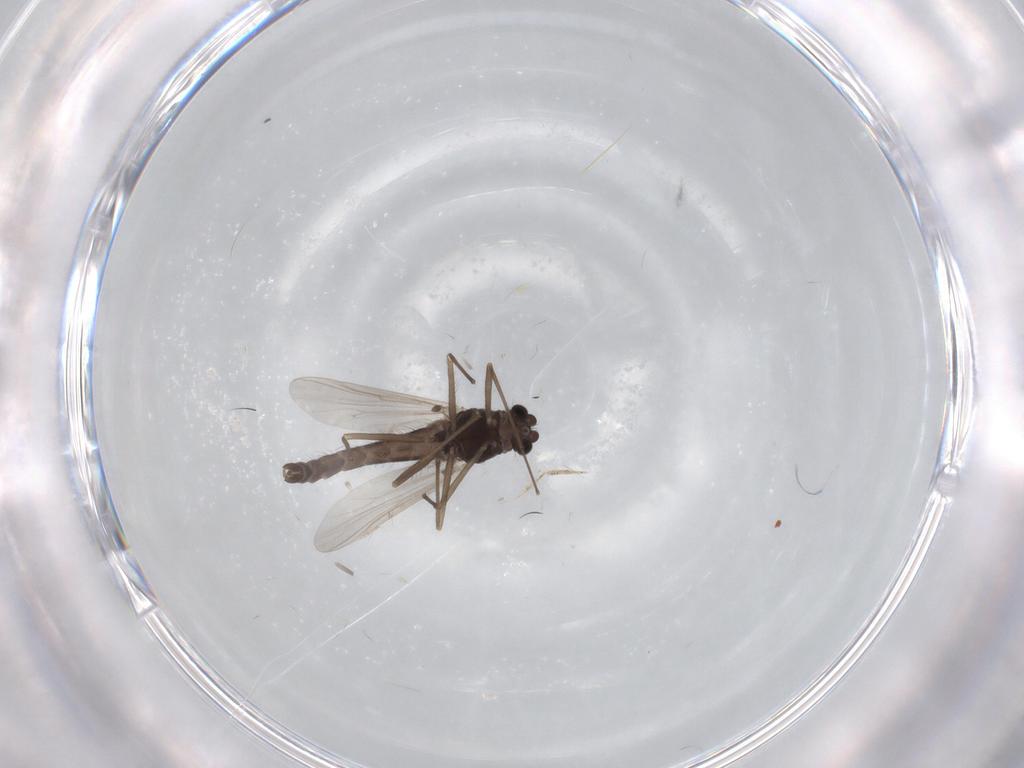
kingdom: Animalia
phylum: Arthropoda
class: Insecta
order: Diptera
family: Chironomidae
